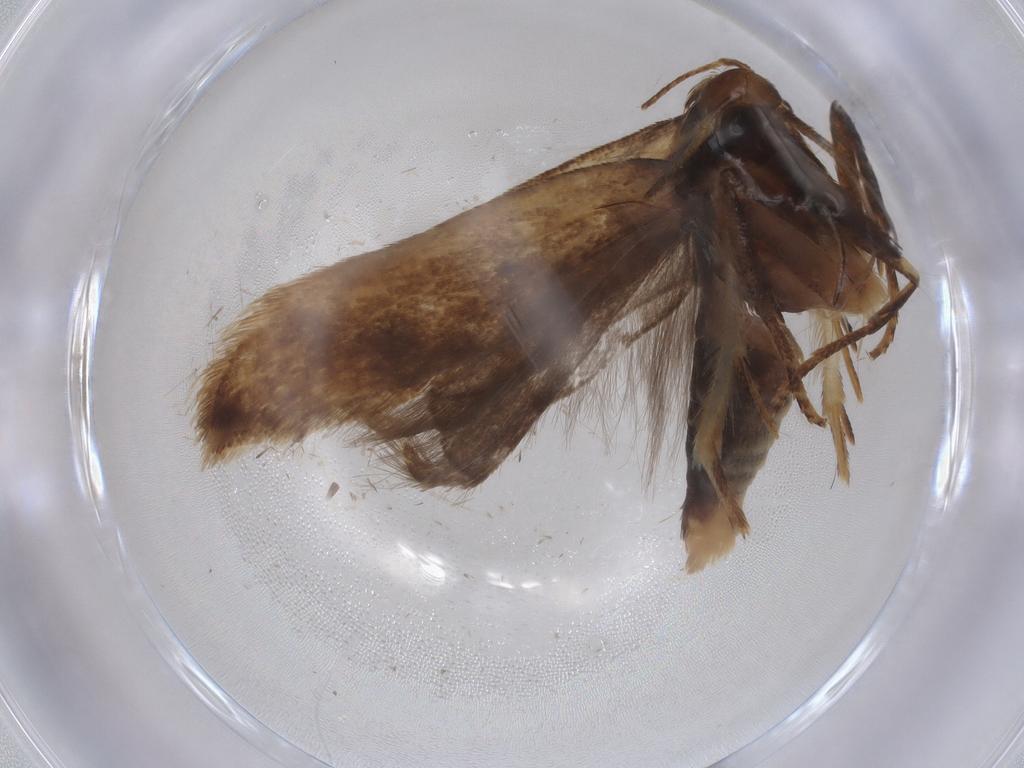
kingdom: Animalia
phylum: Arthropoda
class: Insecta
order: Lepidoptera
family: Gelechiidae
